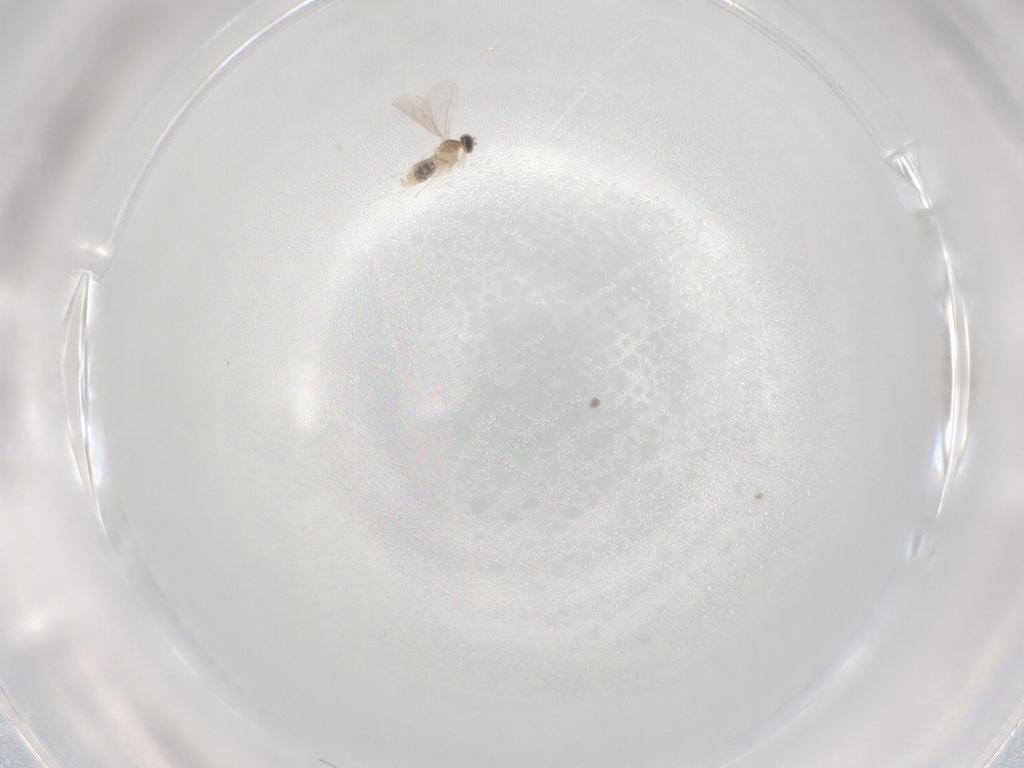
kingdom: Animalia
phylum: Arthropoda
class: Insecta
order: Diptera
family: Cecidomyiidae
